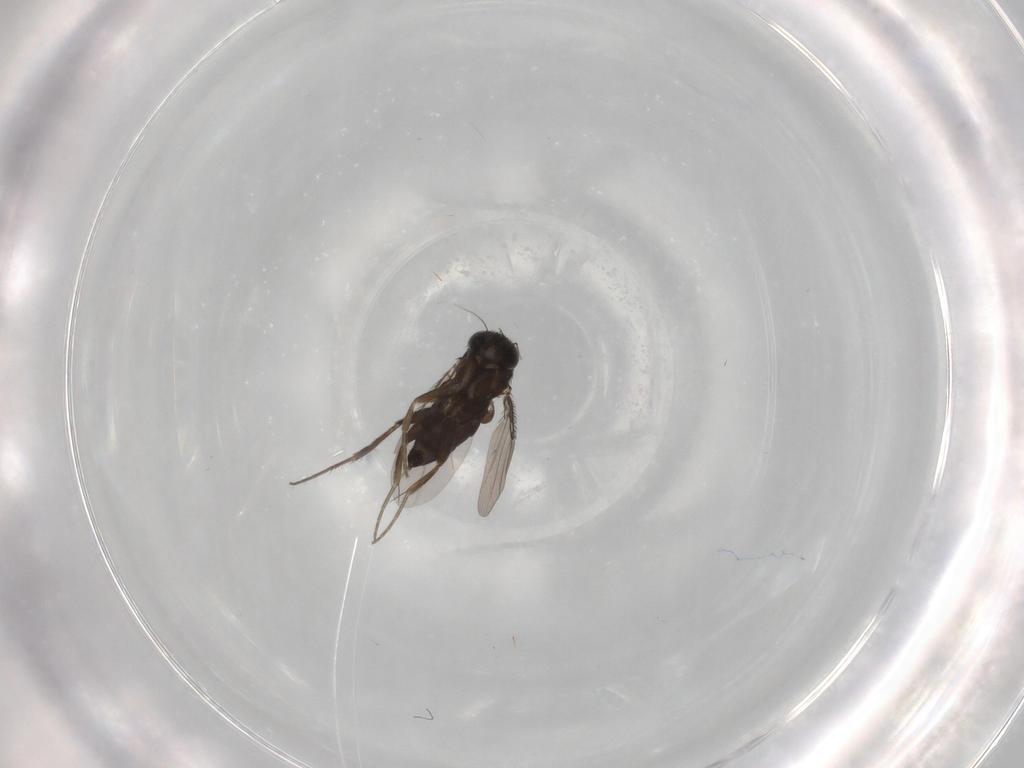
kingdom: Animalia
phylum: Arthropoda
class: Insecta
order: Diptera
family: Phoridae
